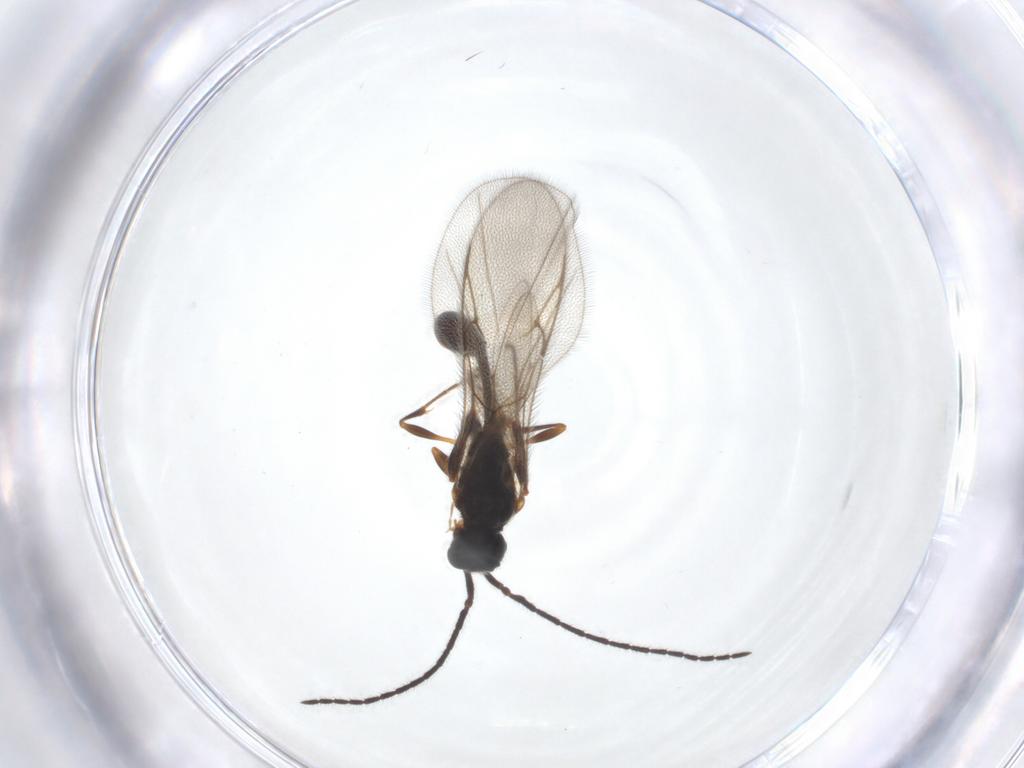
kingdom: Animalia
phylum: Arthropoda
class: Insecta
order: Hymenoptera
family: Diapriidae
